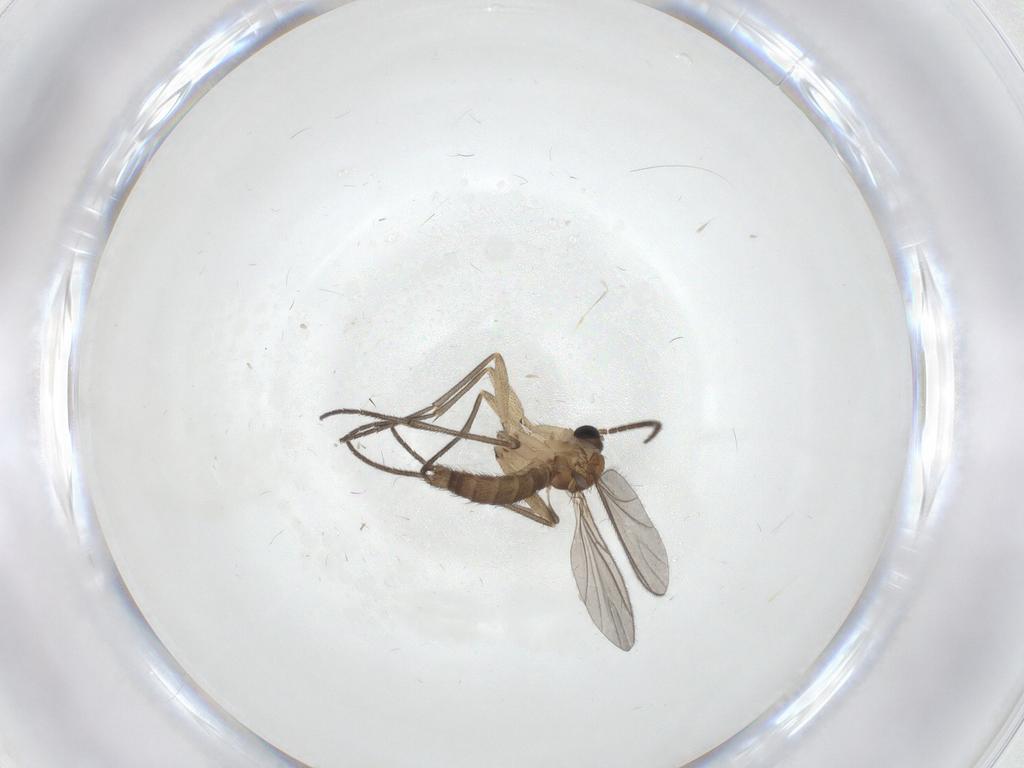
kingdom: Animalia
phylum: Arthropoda
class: Insecta
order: Diptera
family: Sciaridae
